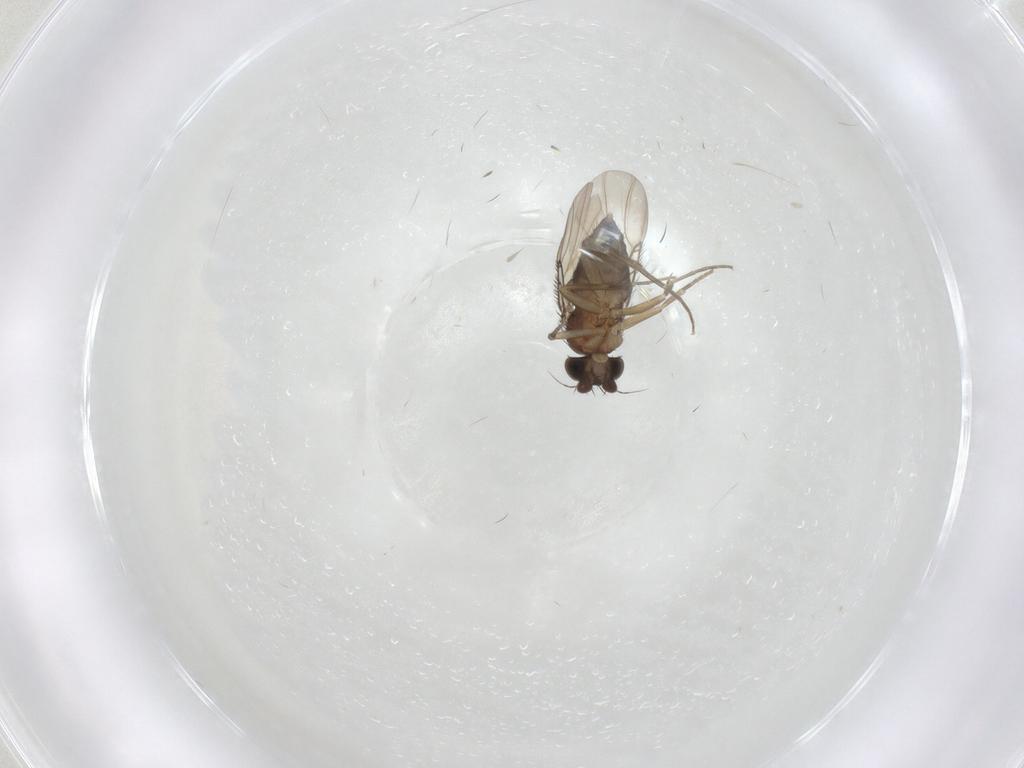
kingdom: Animalia
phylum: Arthropoda
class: Insecta
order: Diptera
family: Phoridae
